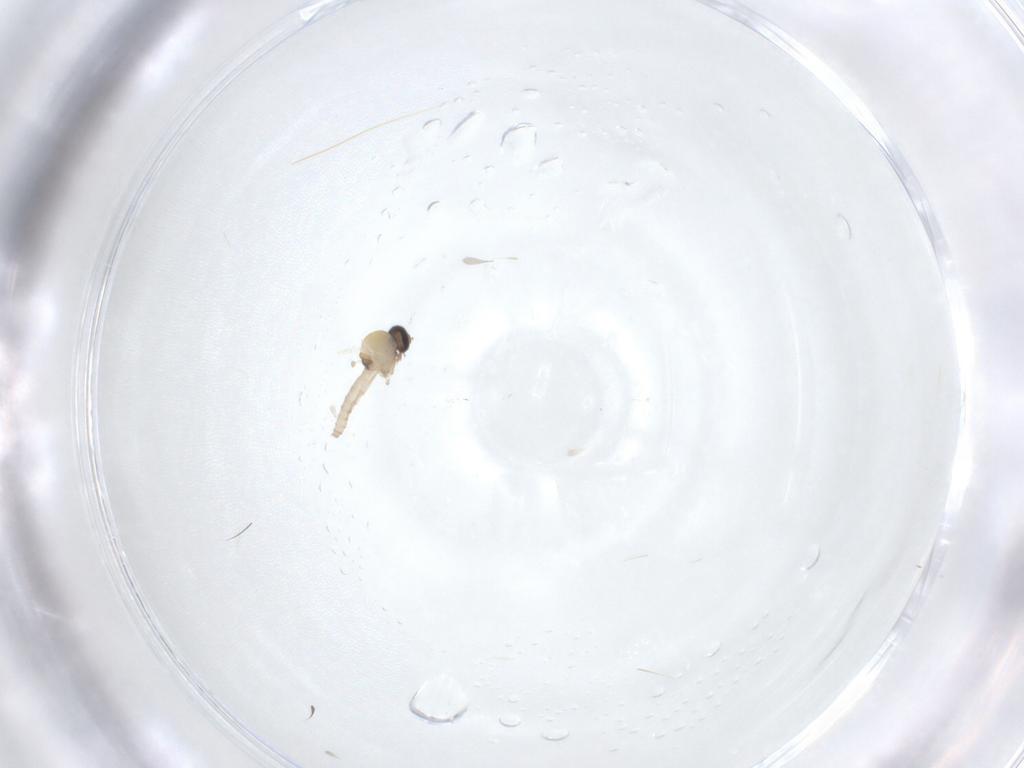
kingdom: Animalia
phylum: Arthropoda
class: Insecta
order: Diptera
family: Ceratopogonidae
